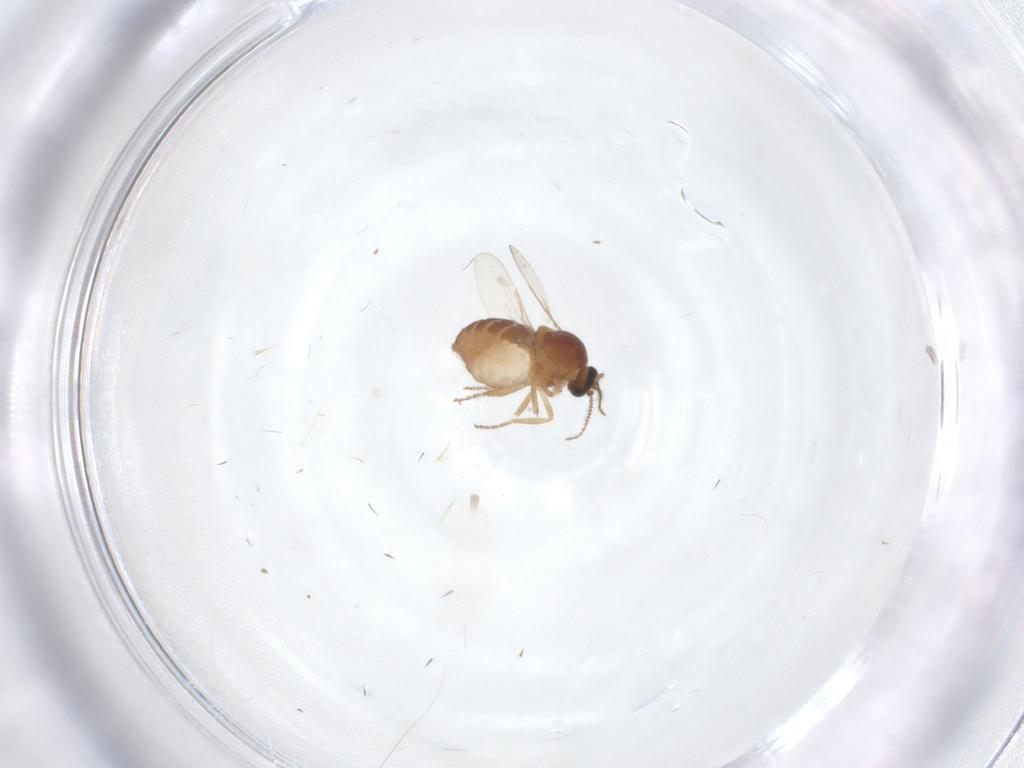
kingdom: Animalia
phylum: Arthropoda
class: Insecta
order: Diptera
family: Ceratopogonidae
